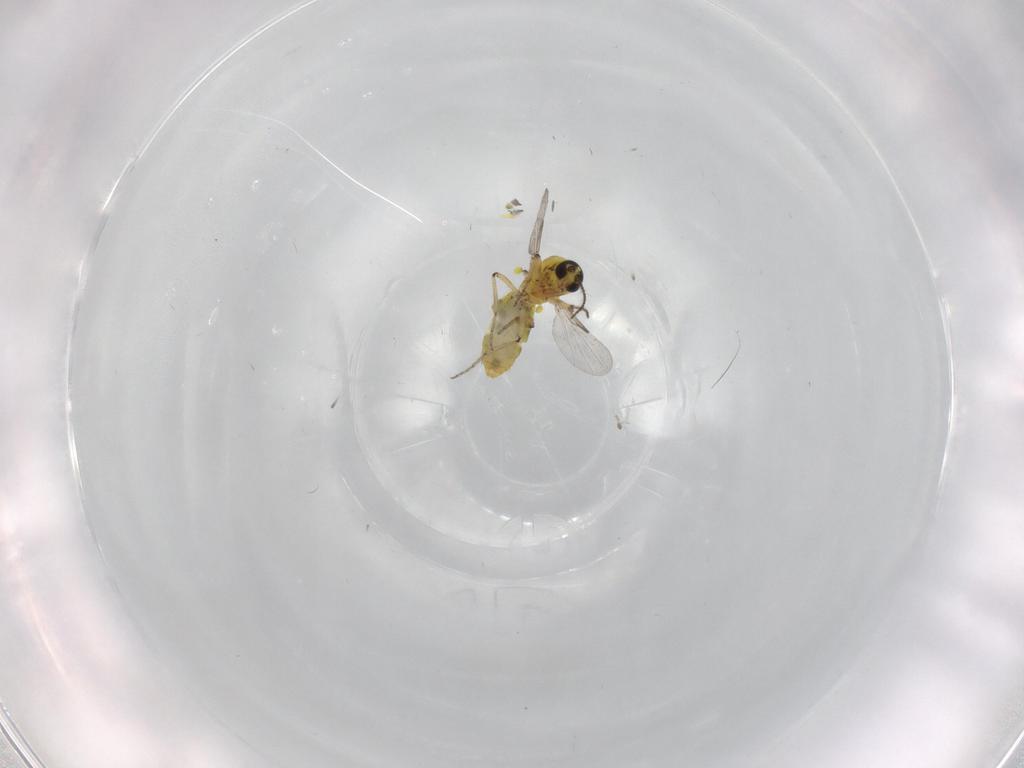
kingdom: Animalia
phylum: Arthropoda
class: Insecta
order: Diptera
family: Ceratopogonidae
